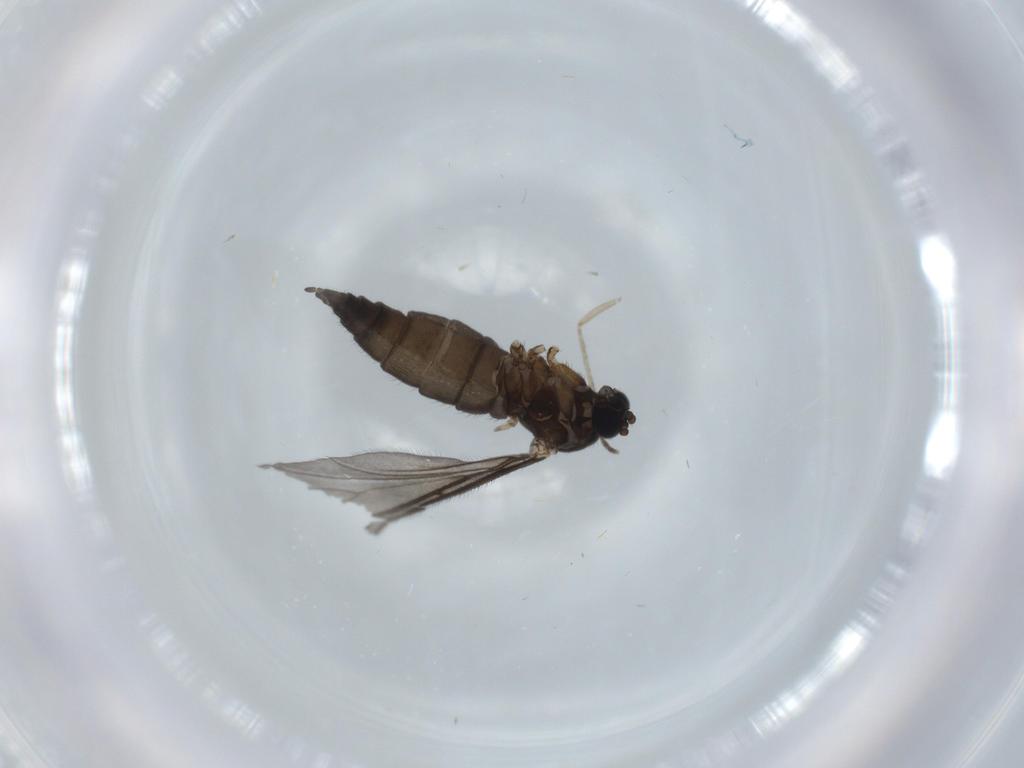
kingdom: Animalia
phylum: Arthropoda
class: Insecta
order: Diptera
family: Psychodidae
